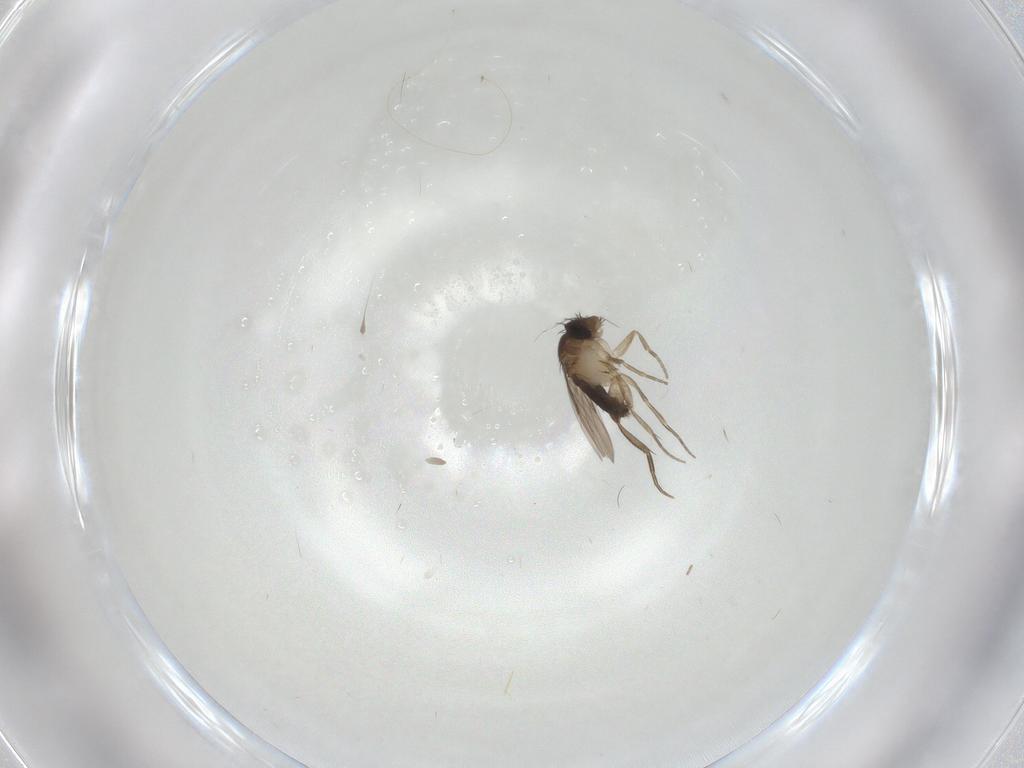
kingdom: Animalia
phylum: Arthropoda
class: Insecta
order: Diptera
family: Phoridae
